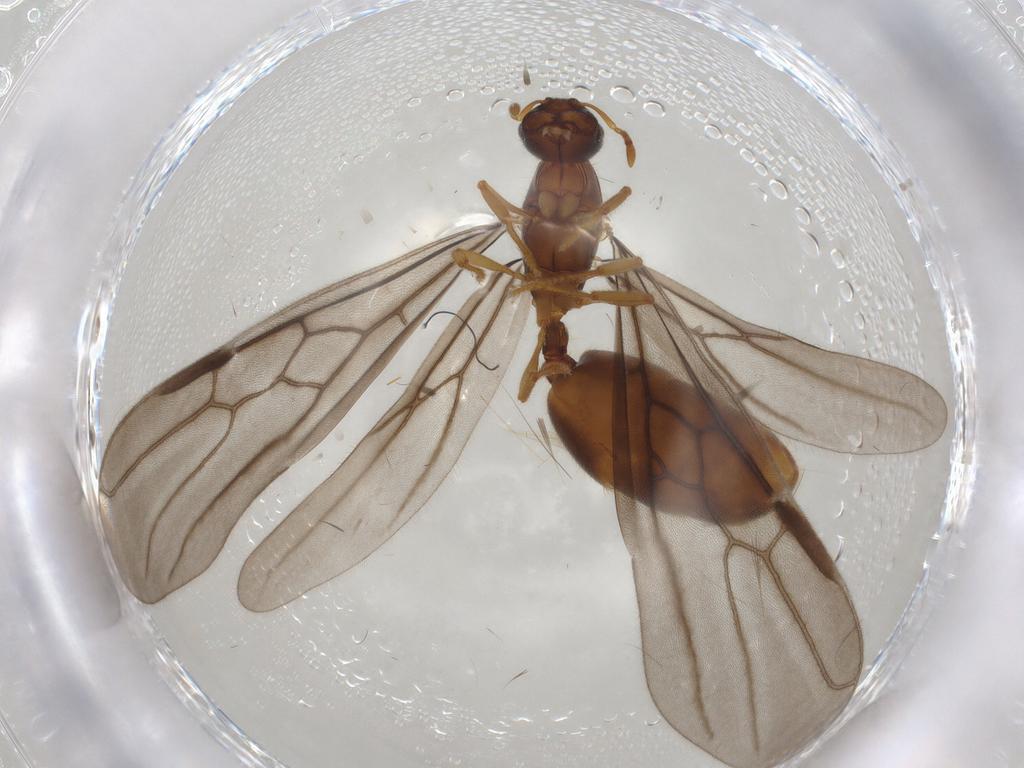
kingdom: Animalia
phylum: Arthropoda
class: Insecta
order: Hymenoptera
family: Formicidae
